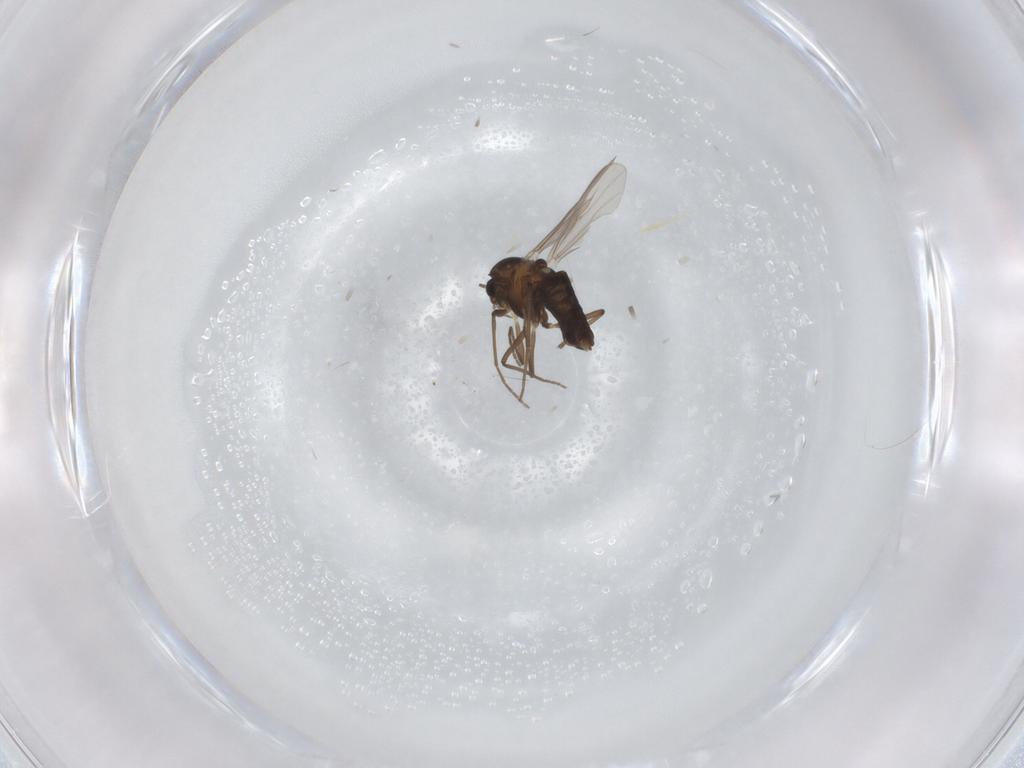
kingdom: Animalia
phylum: Arthropoda
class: Insecta
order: Diptera
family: Chironomidae
